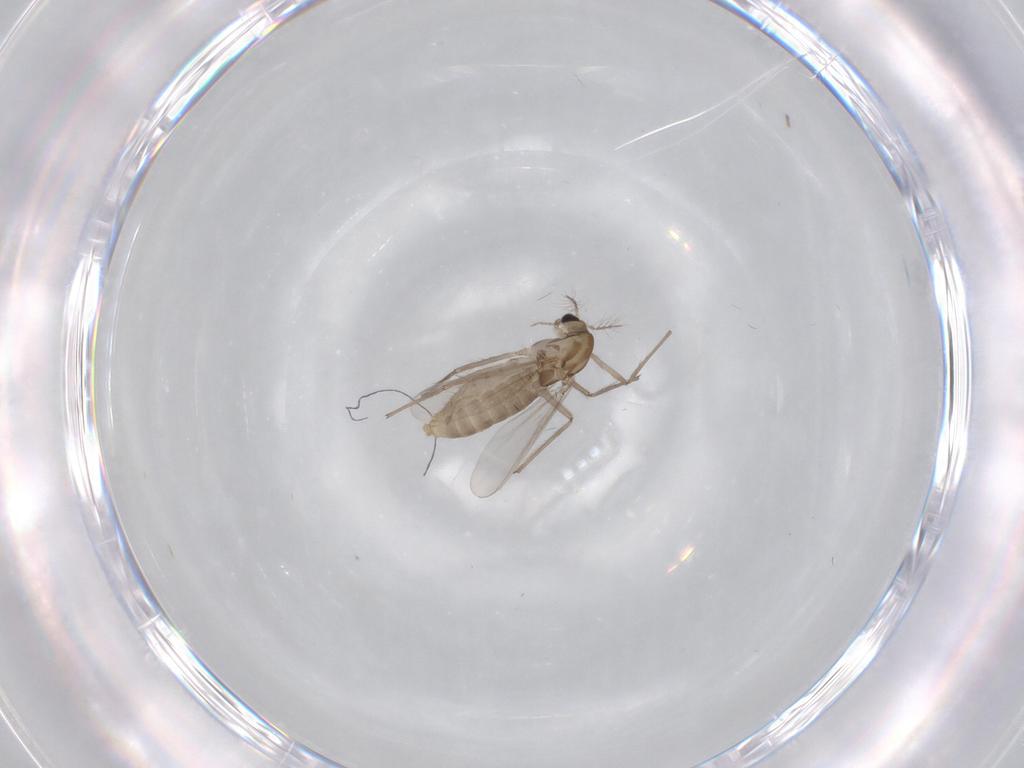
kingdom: Animalia
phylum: Arthropoda
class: Insecta
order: Diptera
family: Chironomidae
